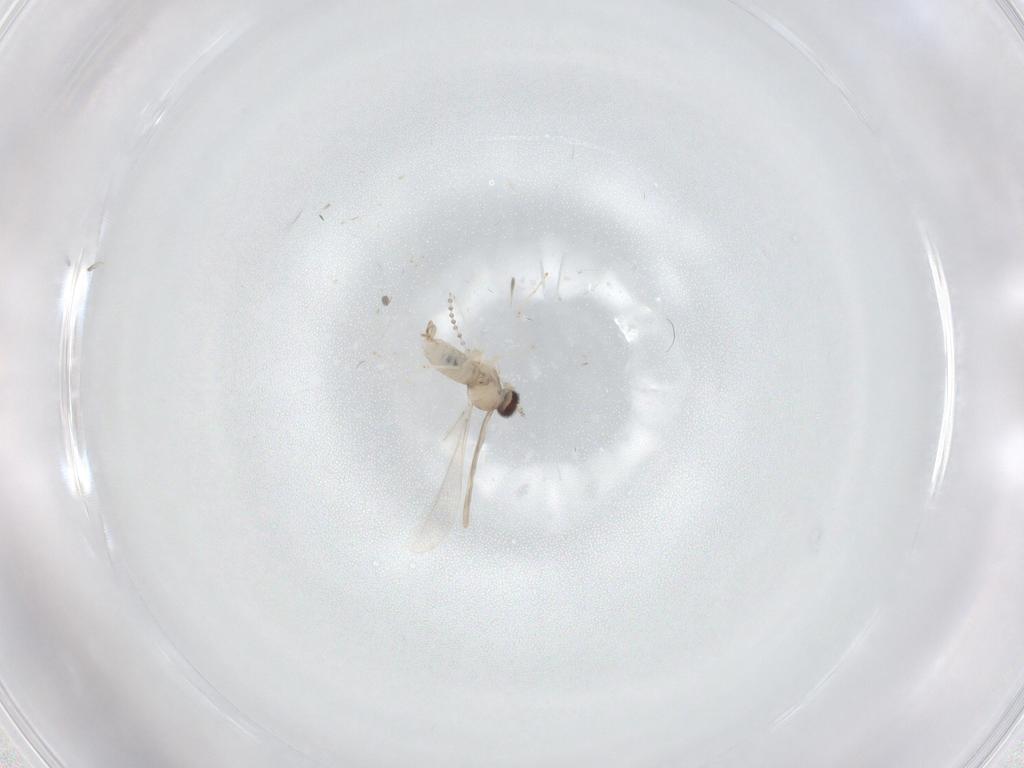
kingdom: Animalia
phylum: Arthropoda
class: Insecta
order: Diptera
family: Cecidomyiidae
